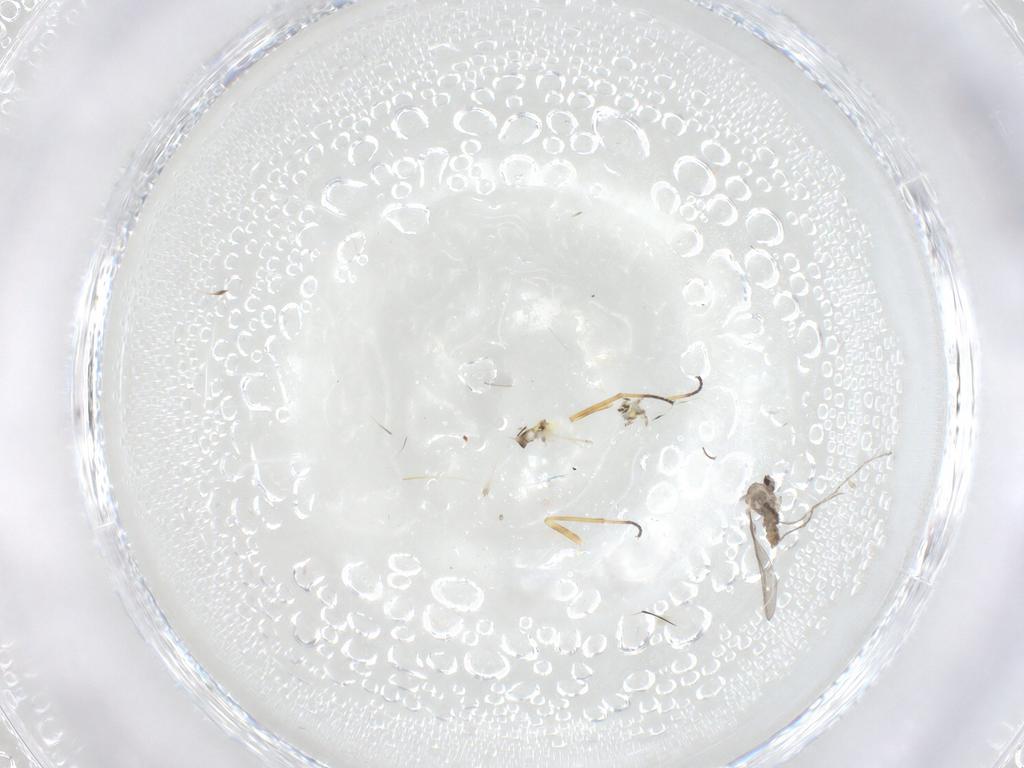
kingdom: Animalia
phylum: Arthropoda
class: Insecta
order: Diptera
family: Bombyliidae
